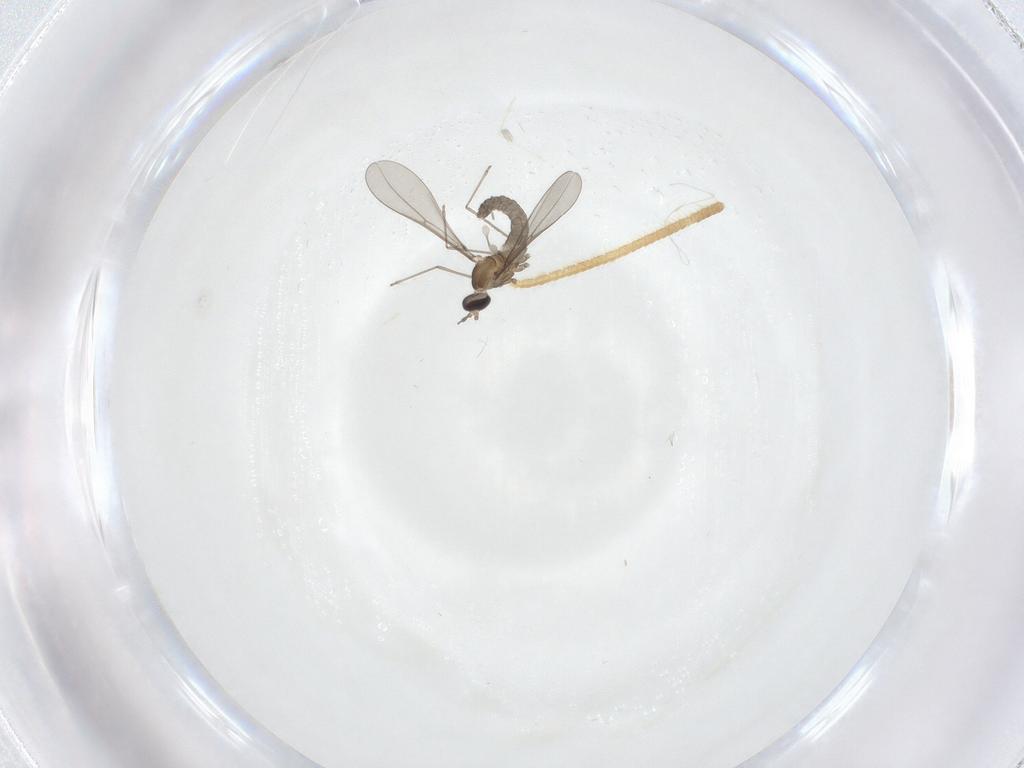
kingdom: Animalia
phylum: Arthropoda
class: Insecta
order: Diptera
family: Cecidomyiidae
